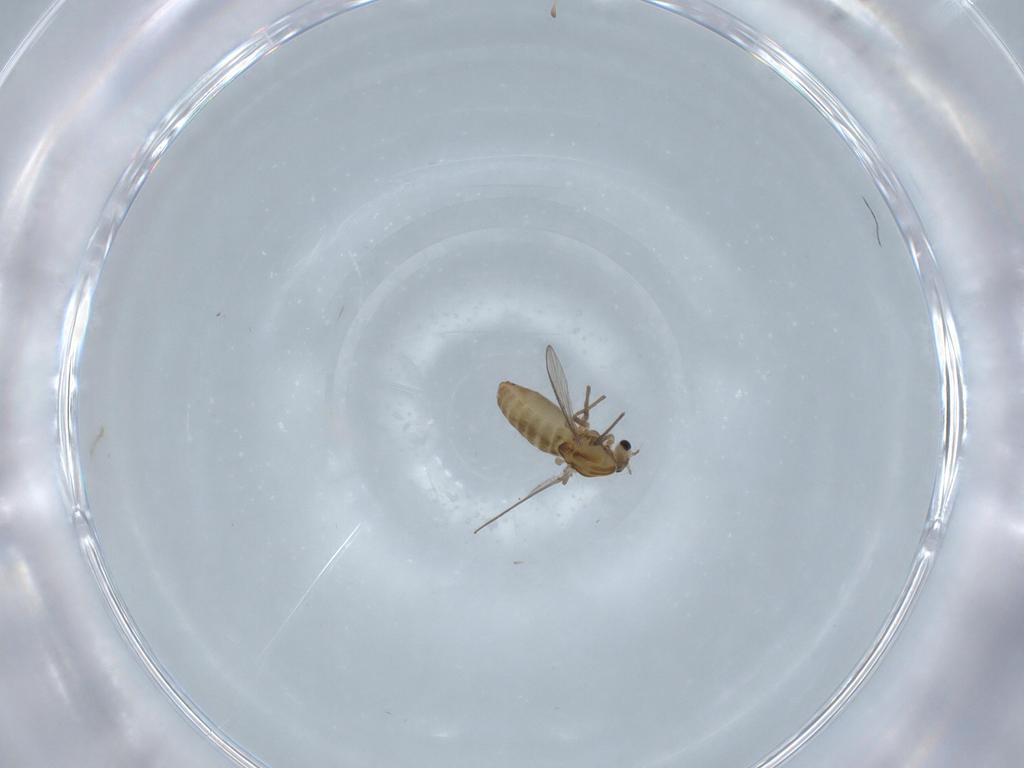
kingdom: Animalia
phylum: Arthropoda
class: Insecta
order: Diptera
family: Chironomidae
